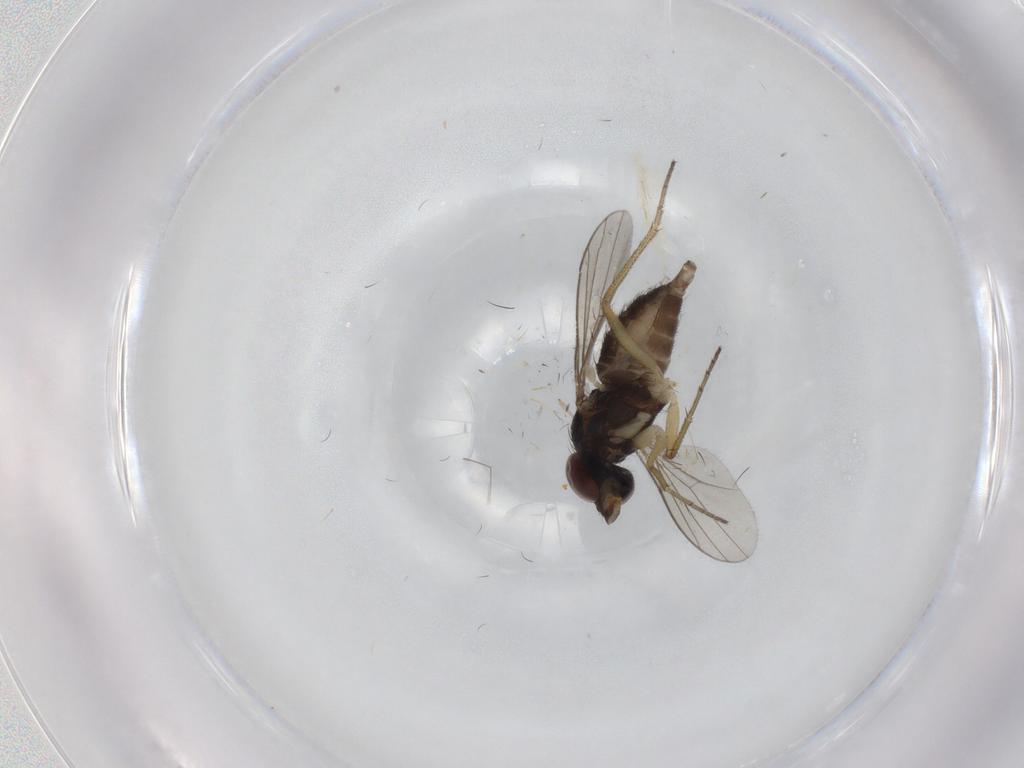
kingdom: Animalia
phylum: Arthropoda
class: Insecta
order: Diptera
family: Dolichopodidae
